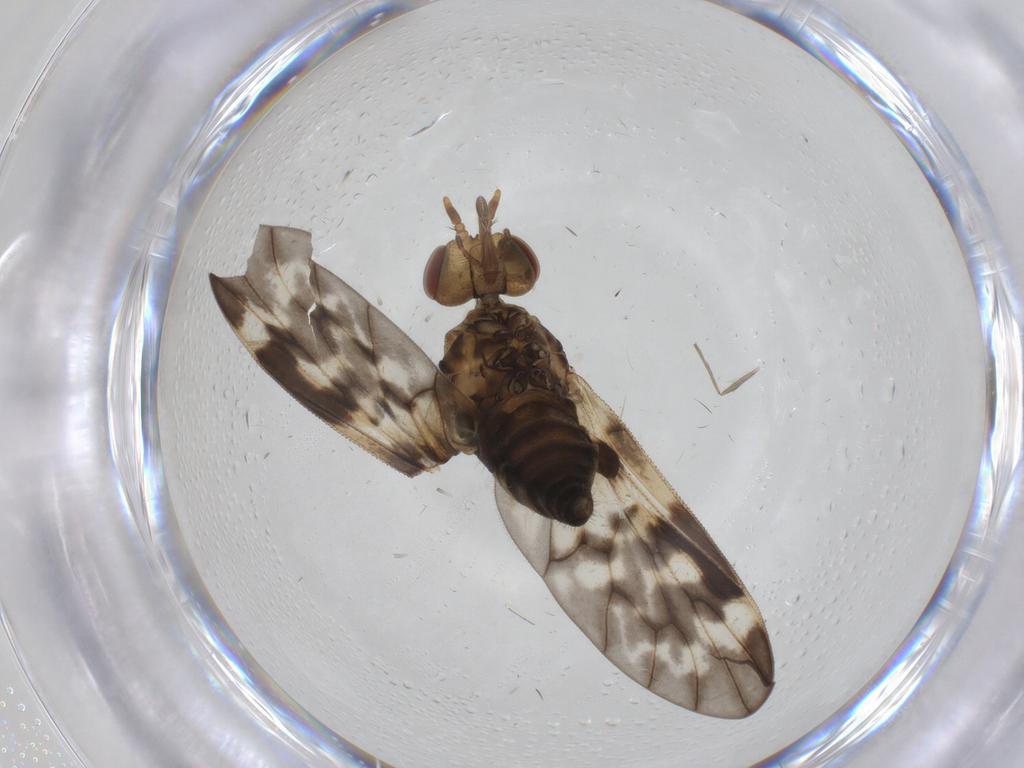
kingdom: Animalia
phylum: Arthropoda
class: Insecta
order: Diptera
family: Austroleptidae
